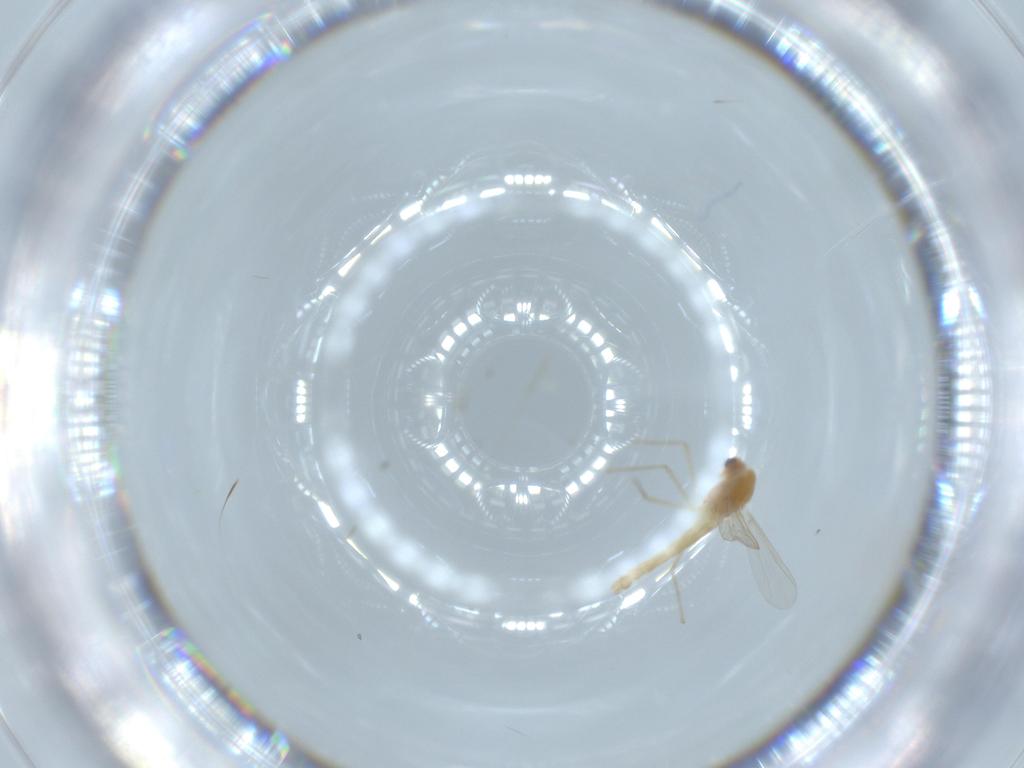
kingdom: Animalia
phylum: Arthropoda
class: Insecta
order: Diptera
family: Chironomidae
